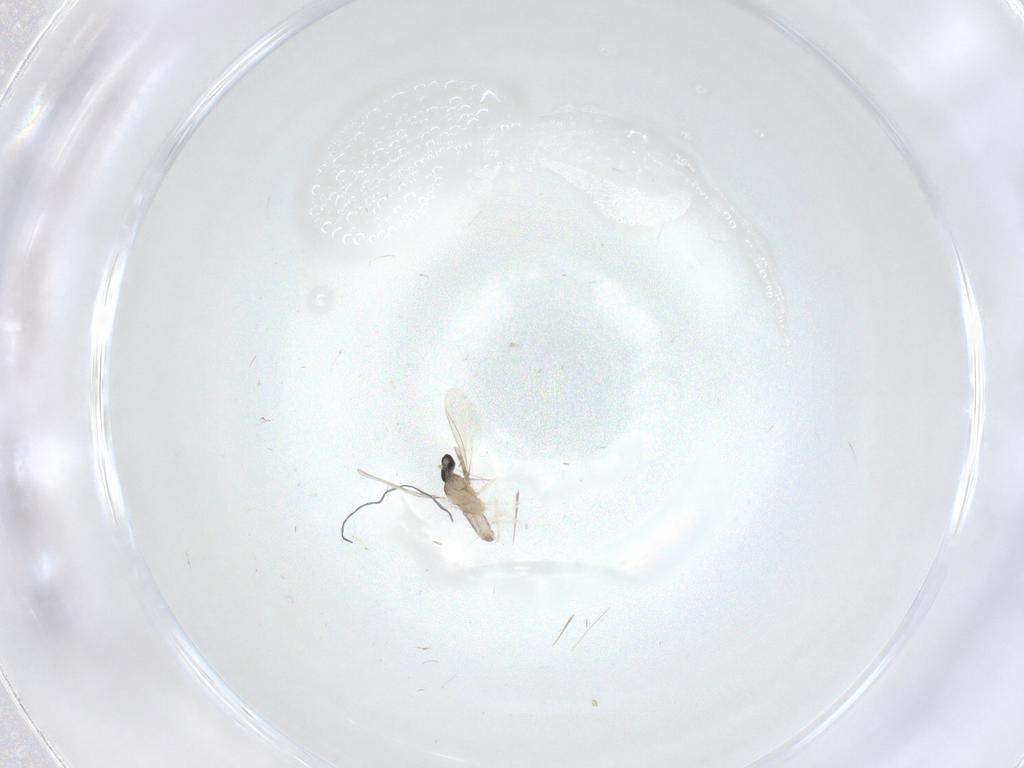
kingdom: Animalia
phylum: Arthropoda
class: Insecta
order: Diptera
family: Cecidomyiidae
